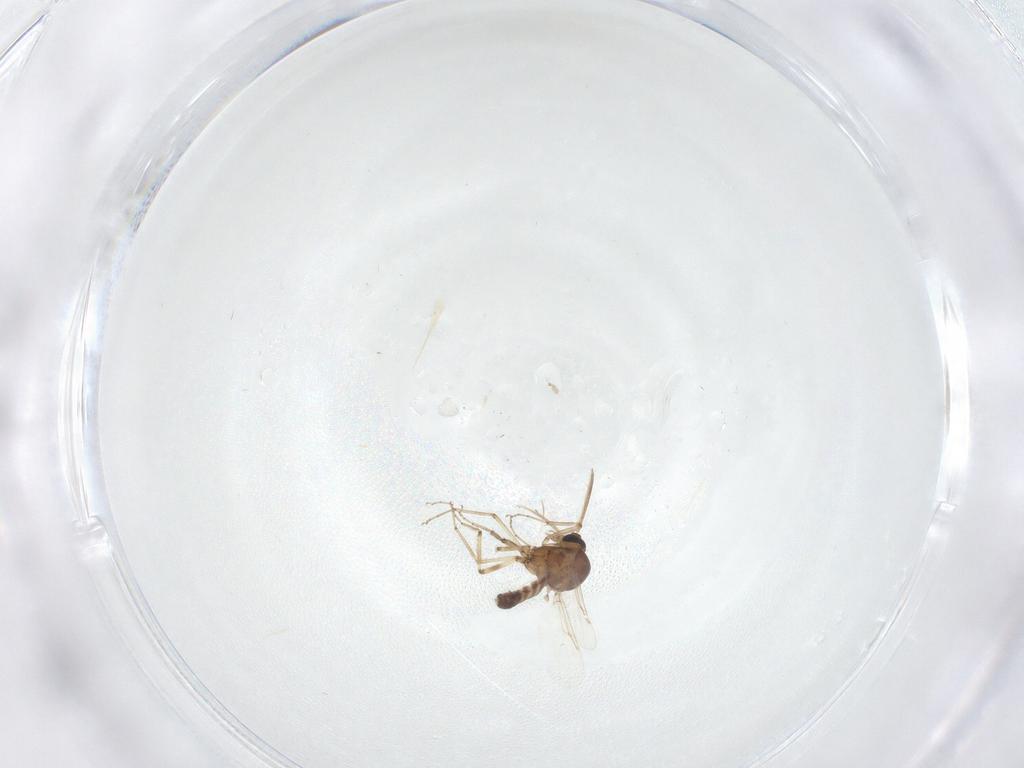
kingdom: Animalia
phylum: Arthropoda
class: Insecta
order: Diptera
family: Ceratopogonidae
